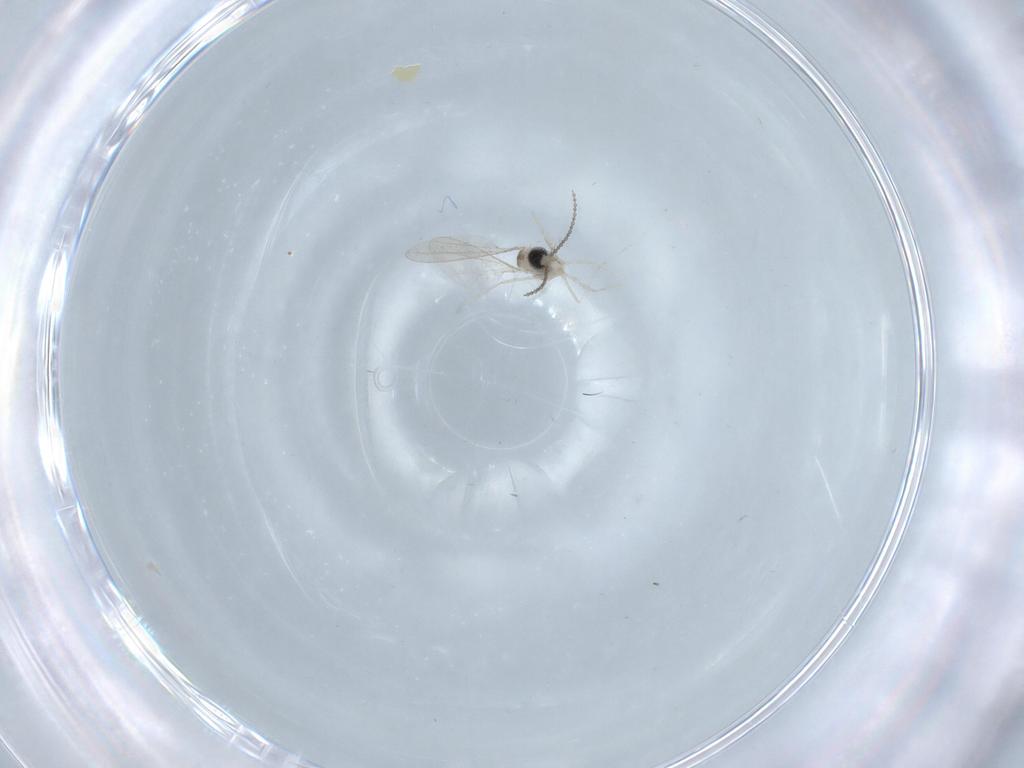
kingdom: Animalia
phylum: Arthropoda
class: Insecta
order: Diptera
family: Cecidomyiidae
